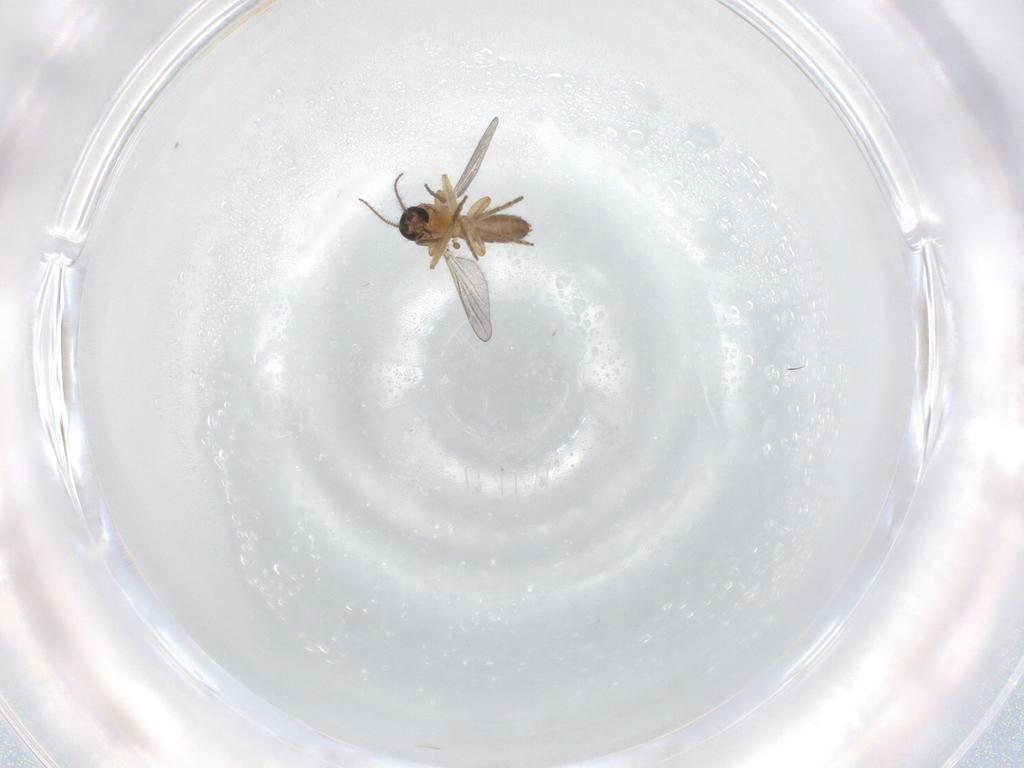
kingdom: Animalia
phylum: Arthropoda
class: Insecta
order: Diptera
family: Ceratopogonidae
